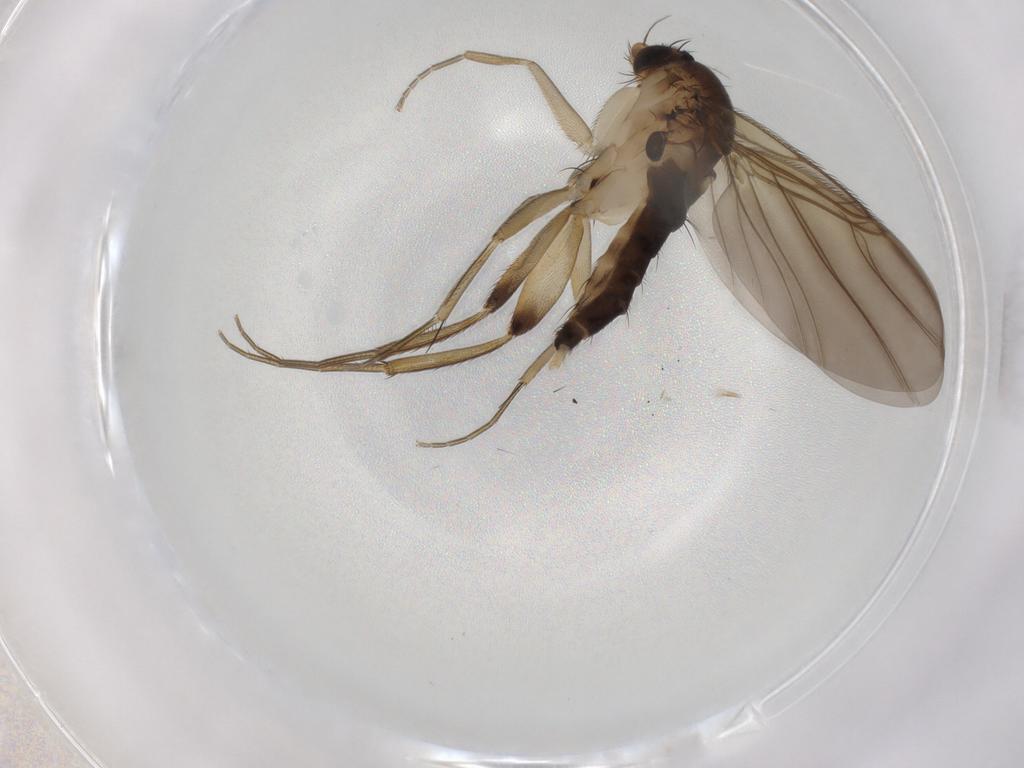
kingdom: Animalia
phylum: Arthropoda
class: Insecta
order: Diptera
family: Phoridae
